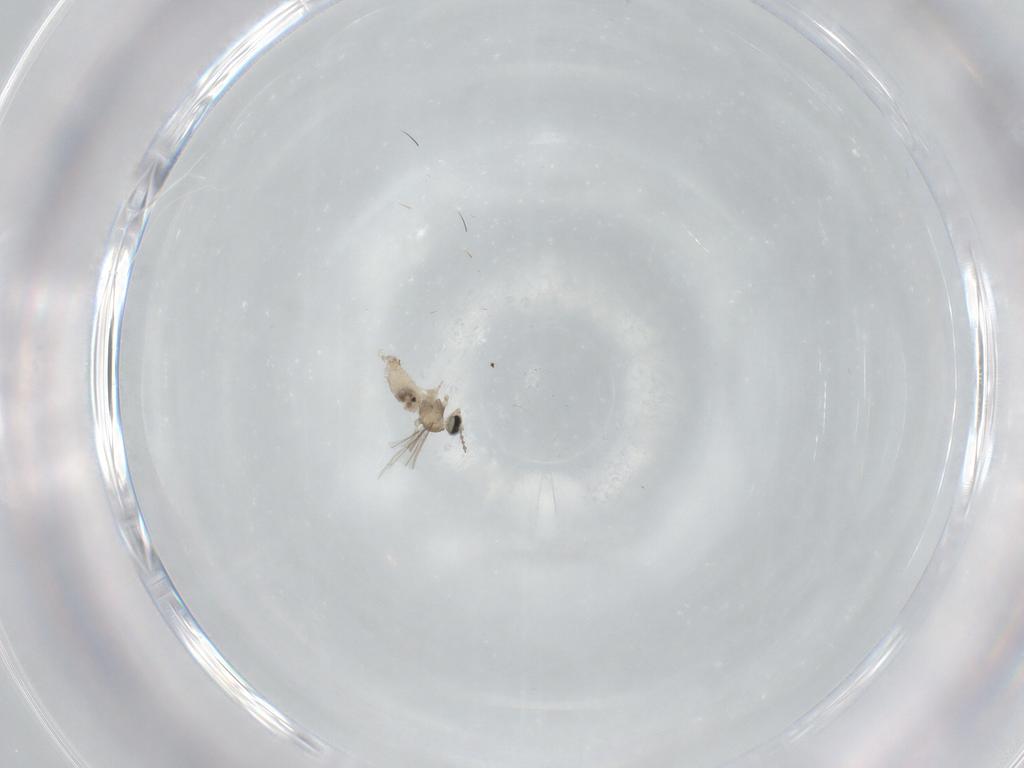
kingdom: Animalia
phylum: Arthropoda
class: Insecta
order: Diptera
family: Cecidomyiidae
